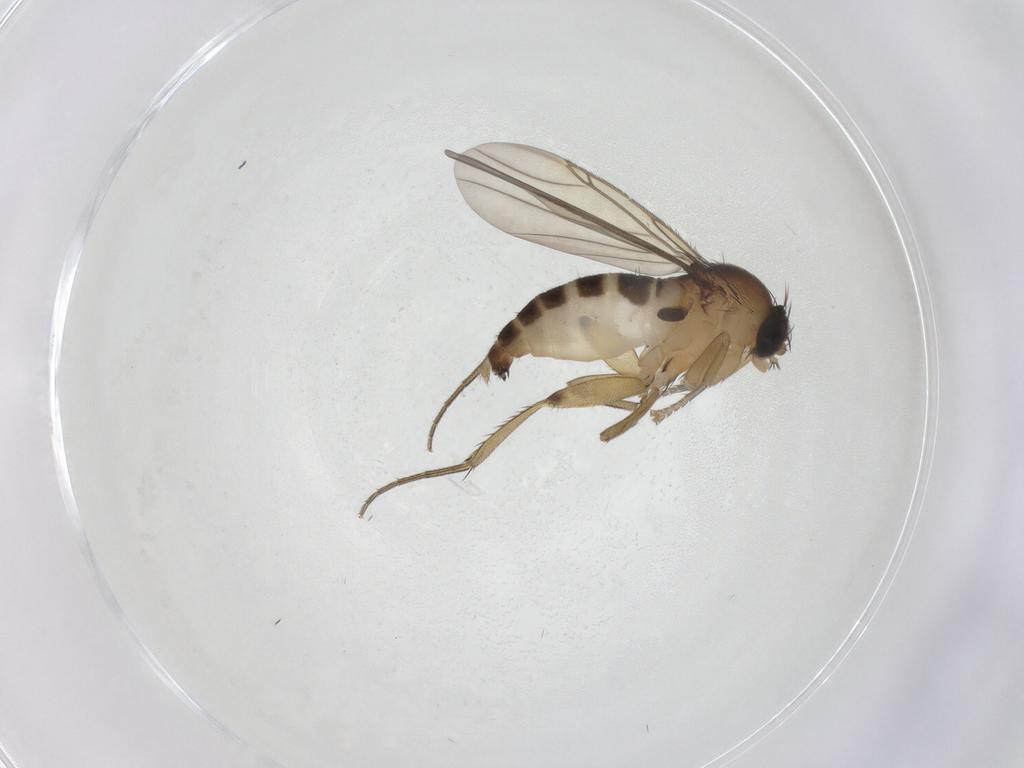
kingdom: Animalia
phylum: Arthropoda
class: Insecta
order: Diptera
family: Phoridae
